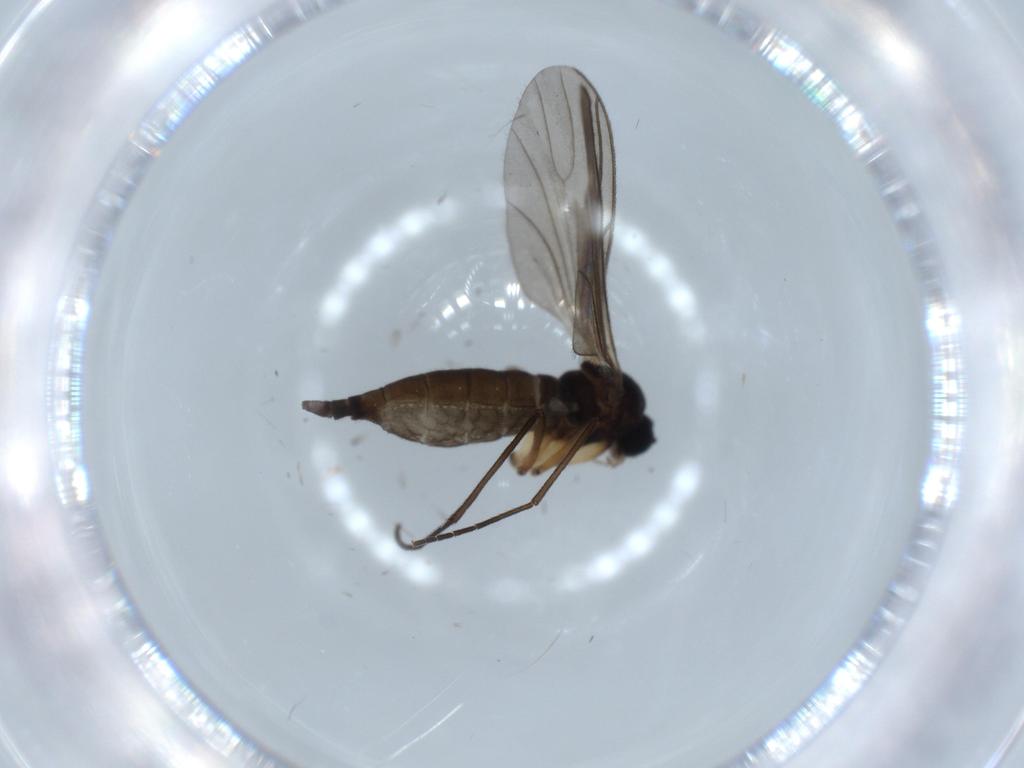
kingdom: Animalia
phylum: Arthropoda
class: Insecta
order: Diptera
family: Sciaridae
